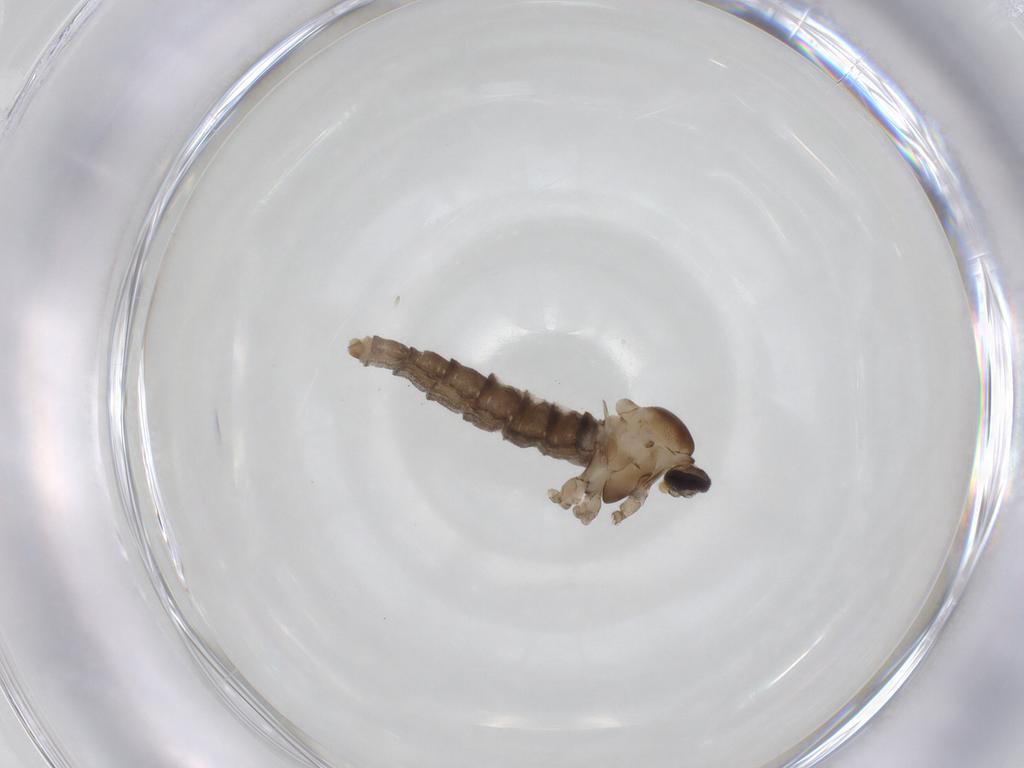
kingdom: Animalia
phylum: Arthropoda
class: Insecta
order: Diptera
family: Cecidomyiidae
